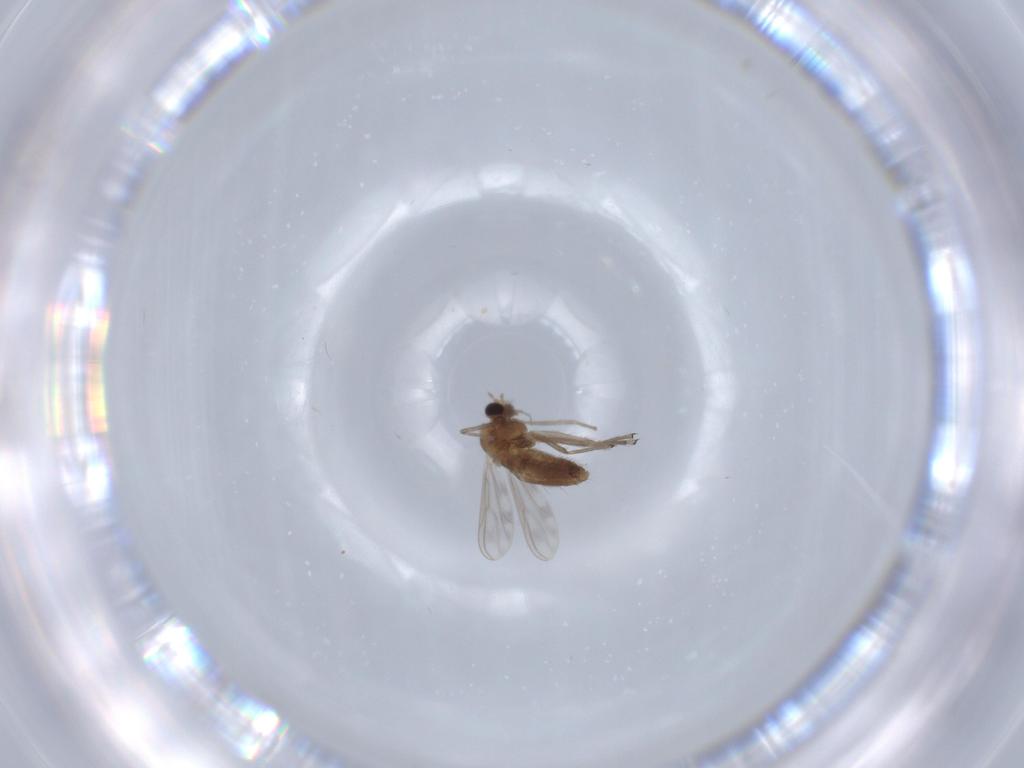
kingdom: Animalia
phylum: Arthropoda
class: Insecta
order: Diptera
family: Chironomidae
